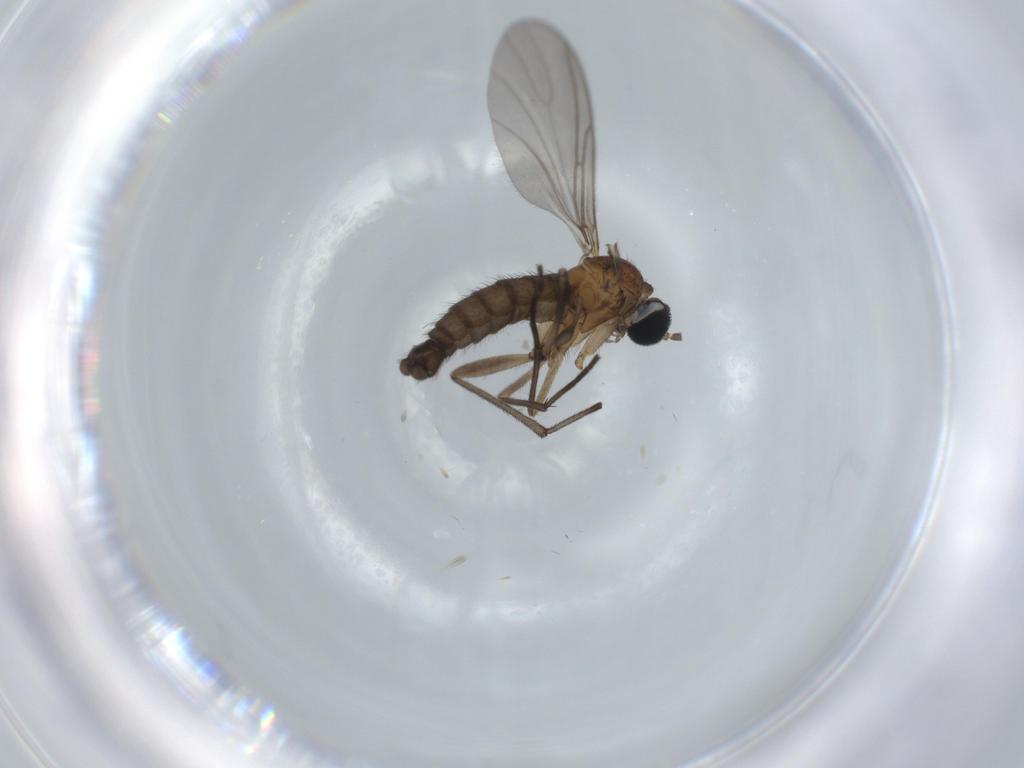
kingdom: Animalia
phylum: Arthropoda
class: Insecta
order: Diptera
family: Sciaridae
